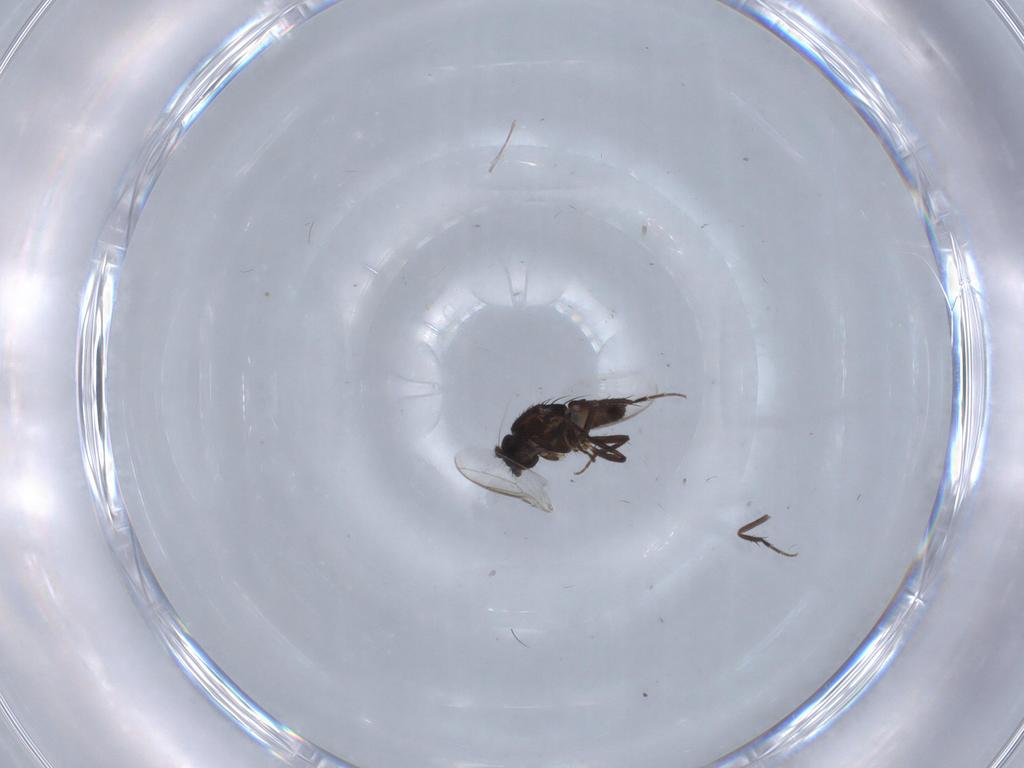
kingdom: Animalia
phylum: Arthropoda
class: Insecta
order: Diptera
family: Sphaeroceridae
